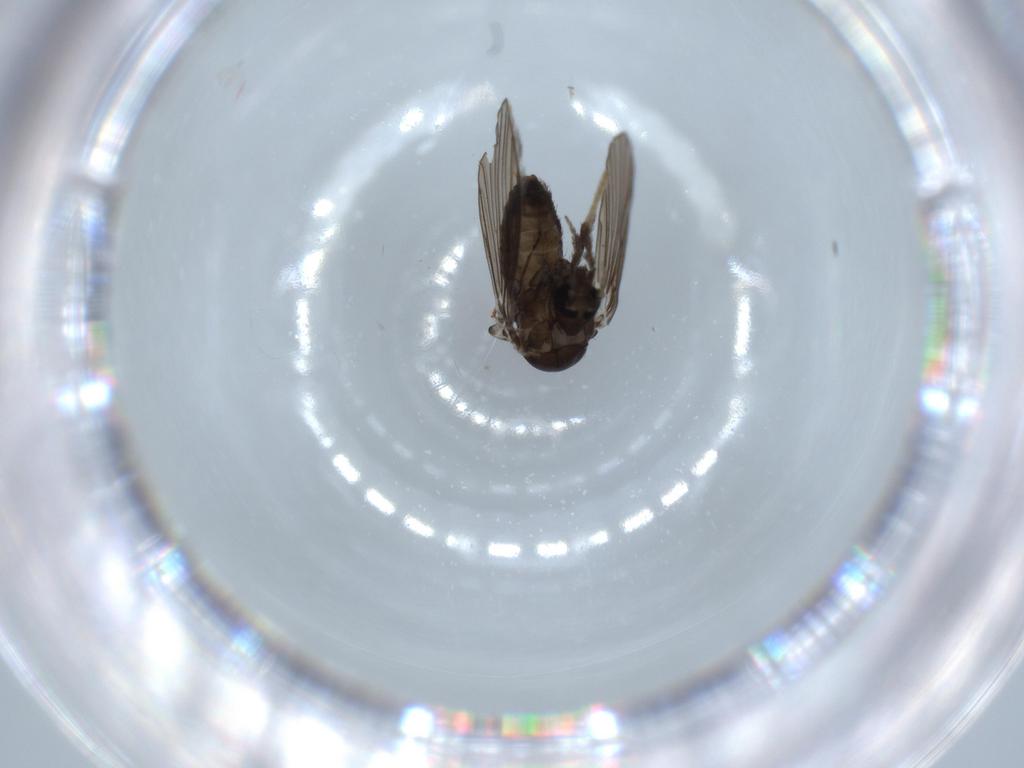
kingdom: Animalia
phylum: Arthropoda
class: Insecta
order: Diptera
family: Psychodidae
